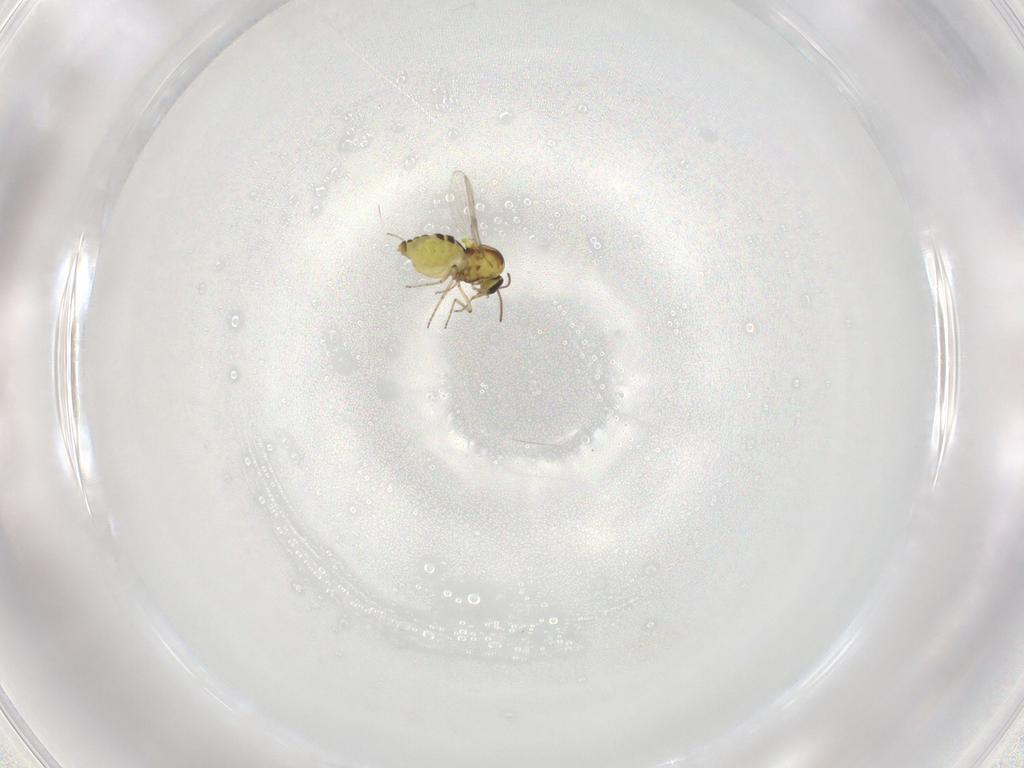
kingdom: Animalia
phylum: Arthropoda
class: Insecta
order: Diptera
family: Ceratopogonidae
